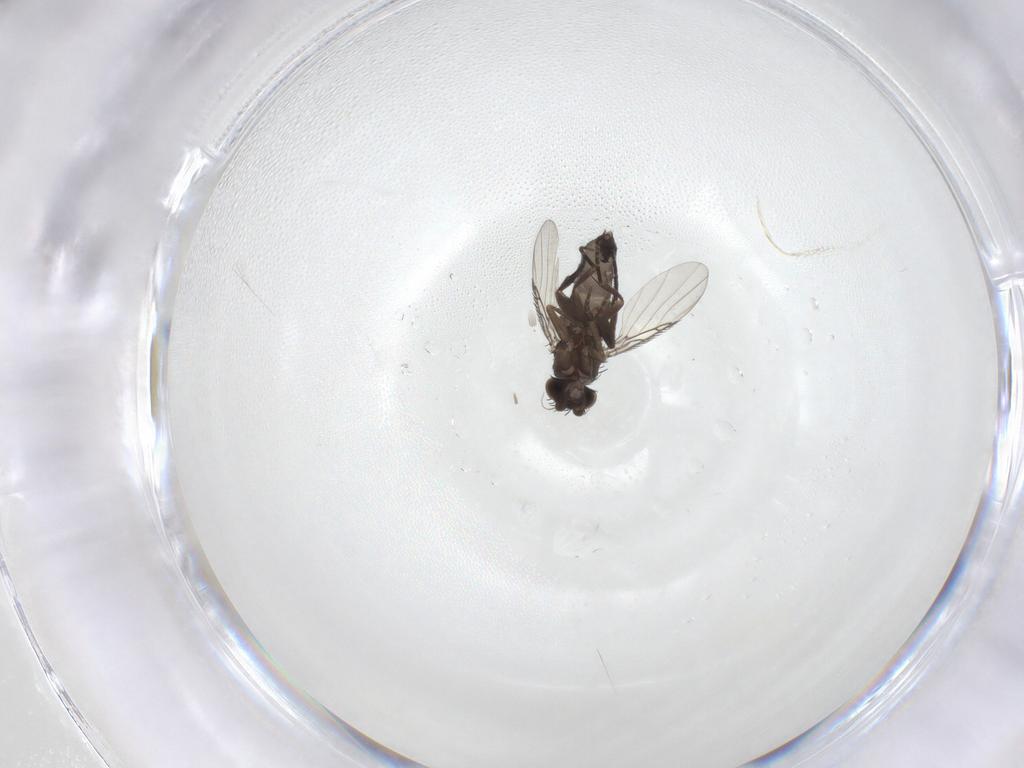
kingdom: Animalia
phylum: Arthropoda
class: Insecta
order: Diptera
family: Phoridae
